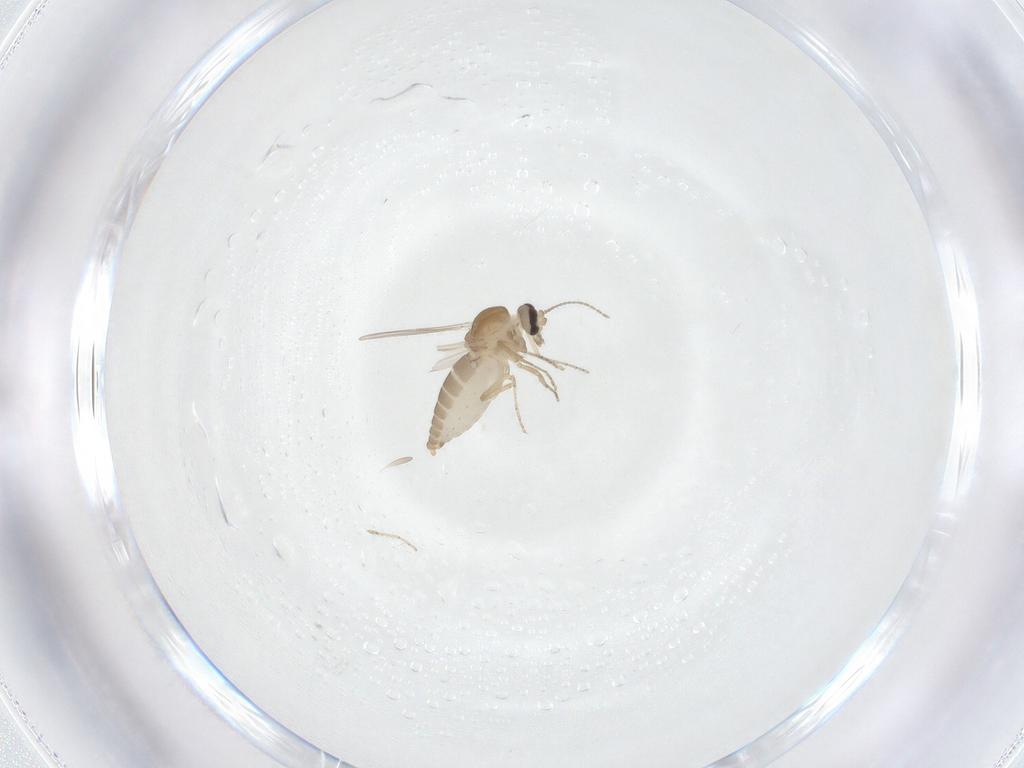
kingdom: Animalia
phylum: Arthropoda
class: Insecta
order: Diptera
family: Ceratopogonidae
